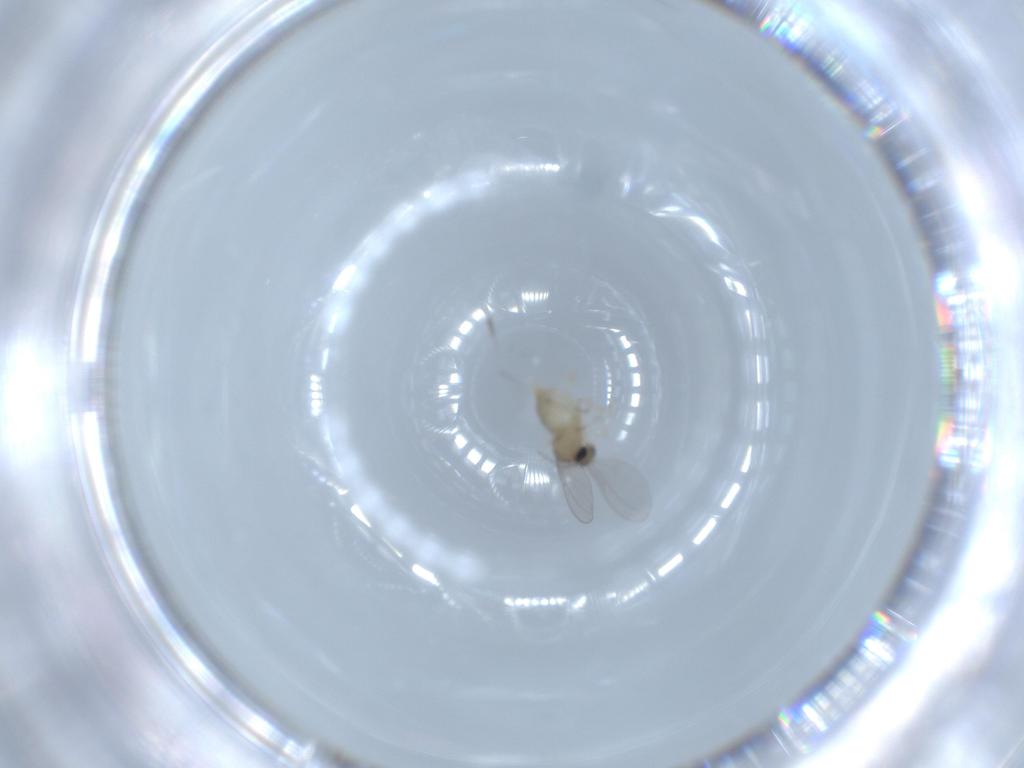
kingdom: Animalia
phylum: Arthropoda
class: Insecta
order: Diptera
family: Cecidomyiidae
